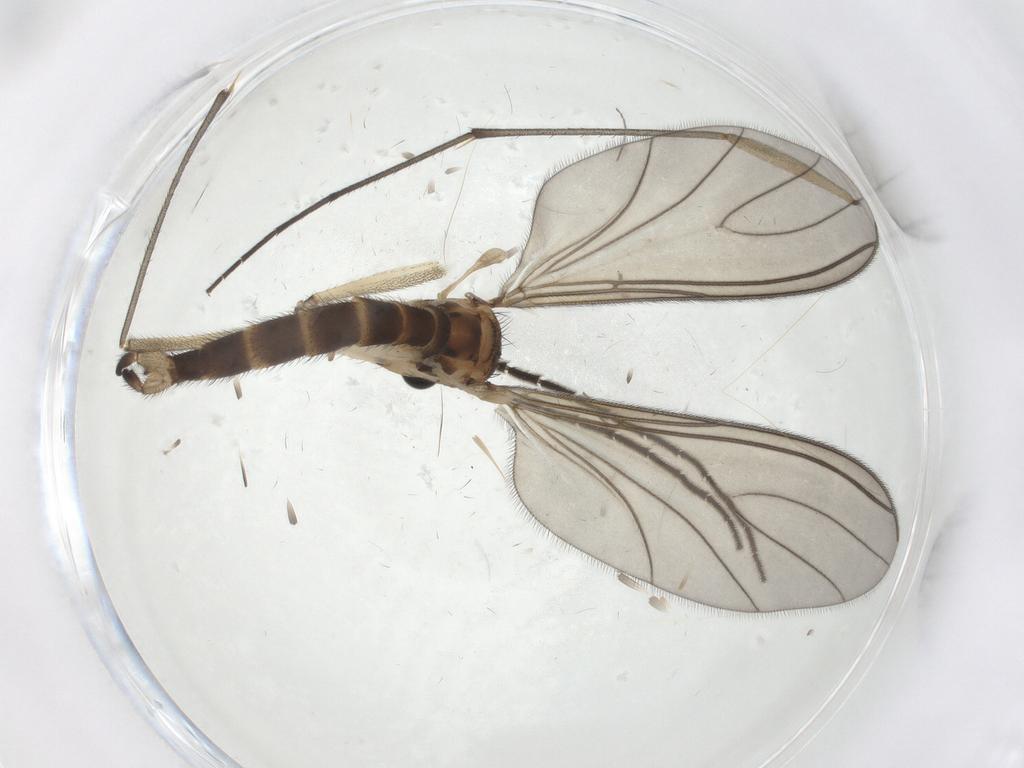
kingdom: Animalia
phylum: Arthropoda
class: Insecta
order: Diptera
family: Sciaridae
